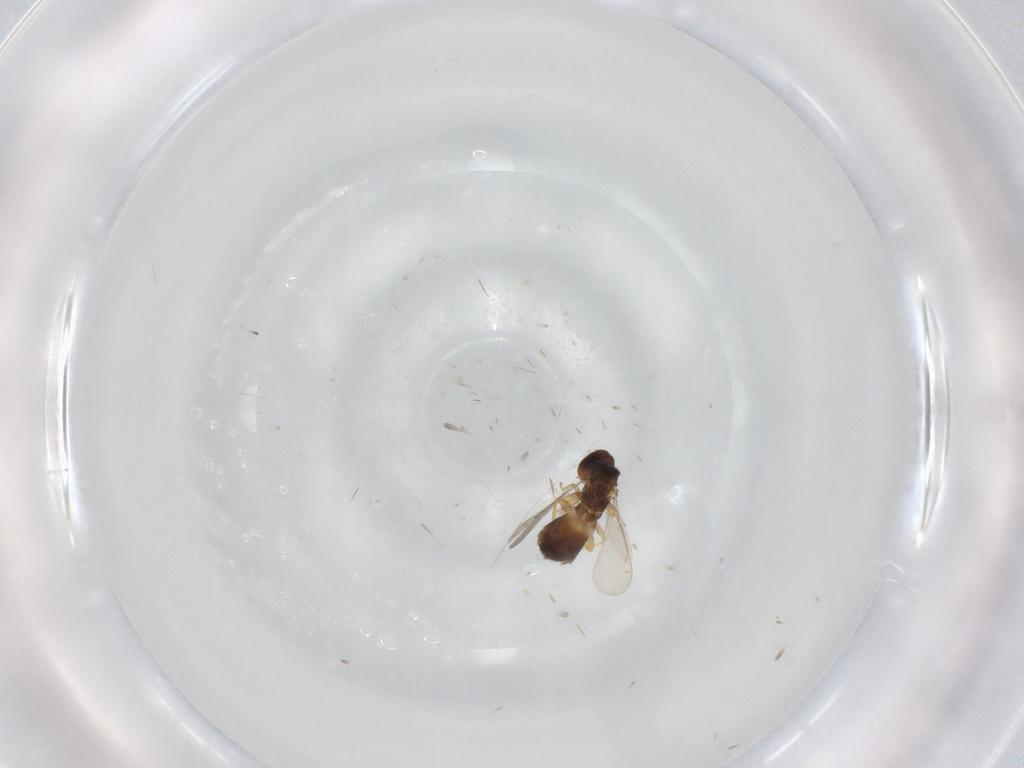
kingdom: Animalia
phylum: Arthropoda
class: Insecta
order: Hymenoptera
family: Eulophidae
